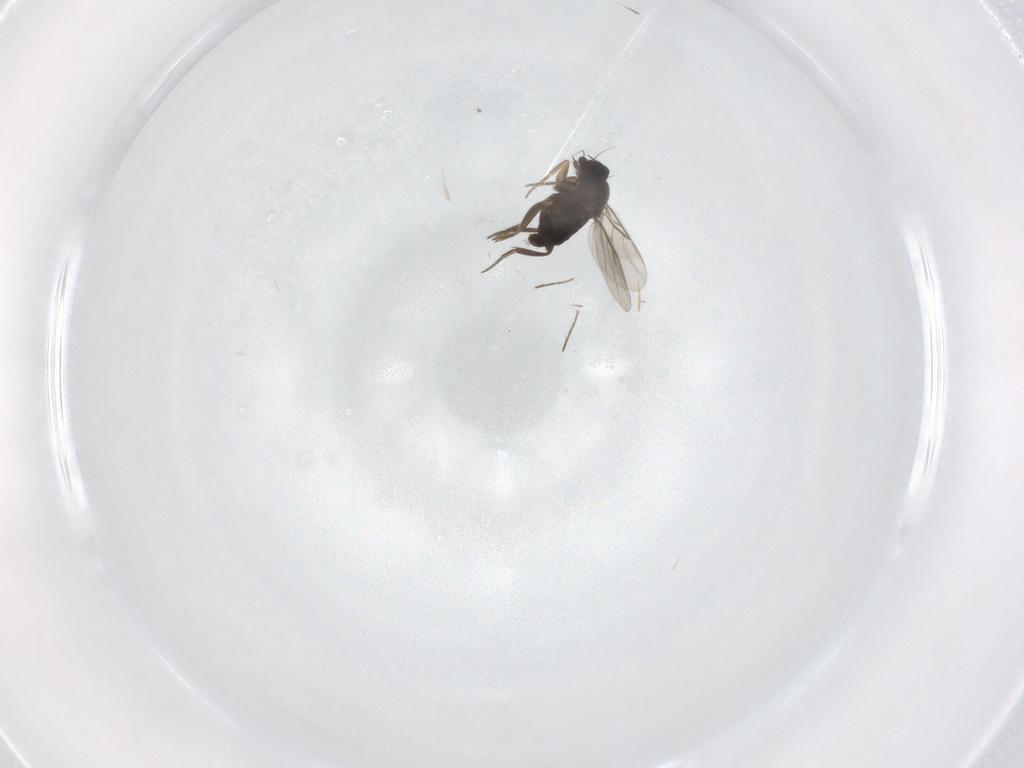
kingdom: Animalia
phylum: Arthropoda
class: Insecta
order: Diptera
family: Phoridae
